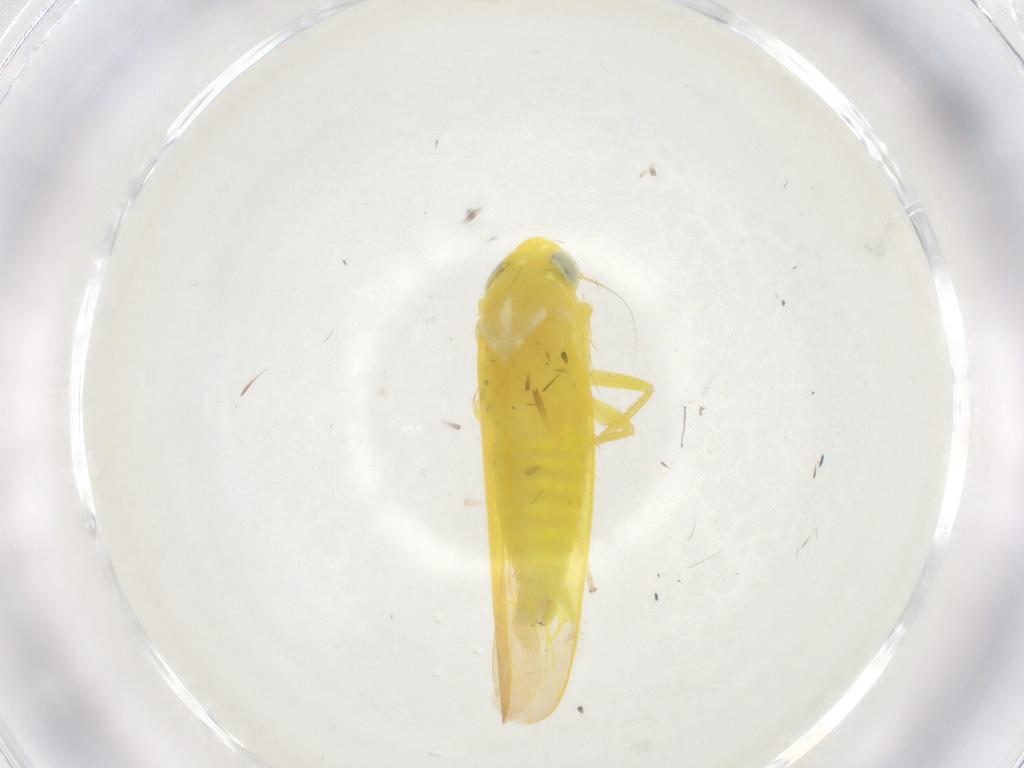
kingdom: Animalia
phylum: Arthropoda
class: Insecta
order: Hemiptera
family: Cicadellidae
